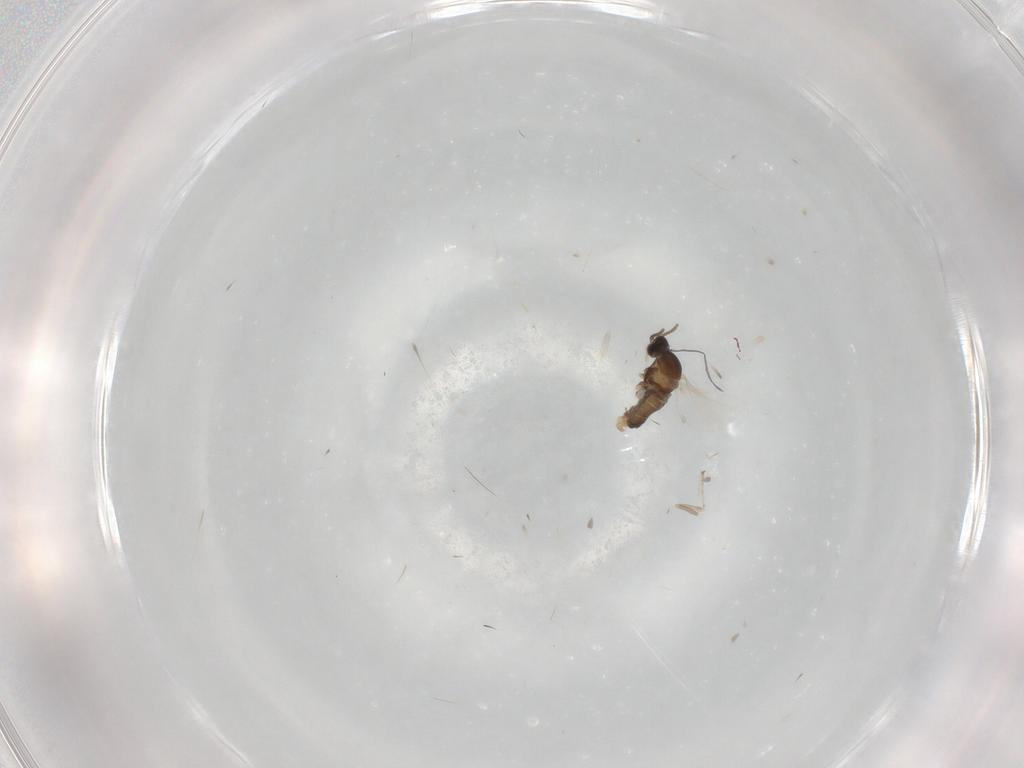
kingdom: Animalia
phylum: Arthropoda
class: Insecta
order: Diptera
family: Cecidomyiidae
